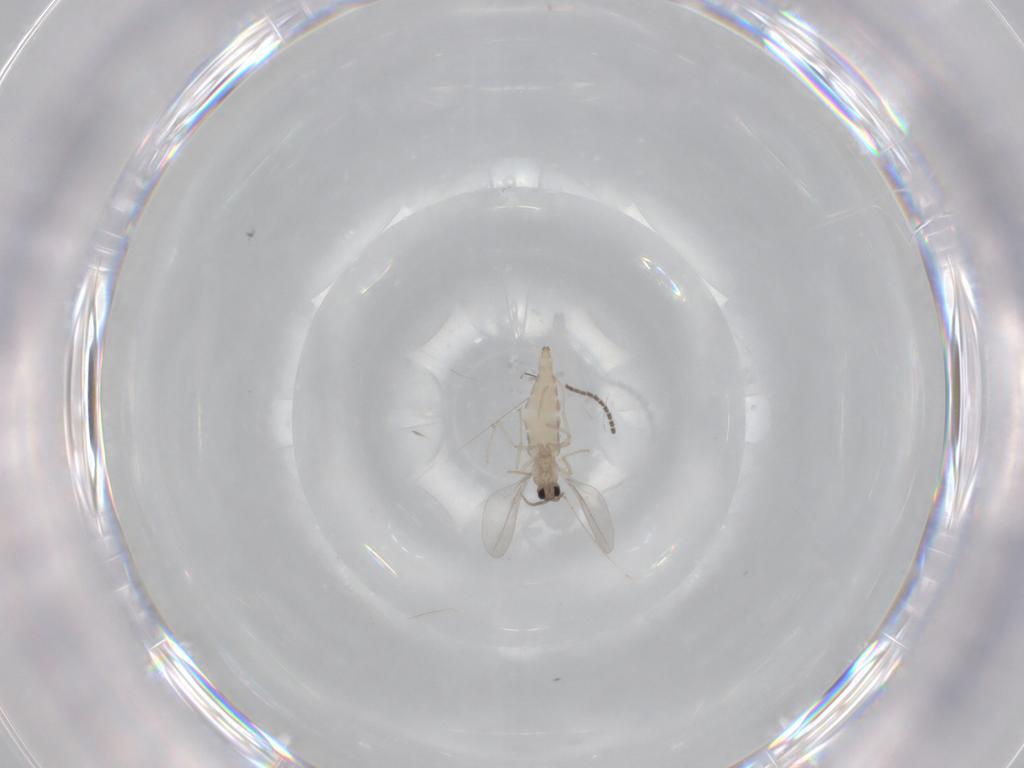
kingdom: Animalia
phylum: Arthropoda
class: Insecta
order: Diptera
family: Cecidomyiidae
